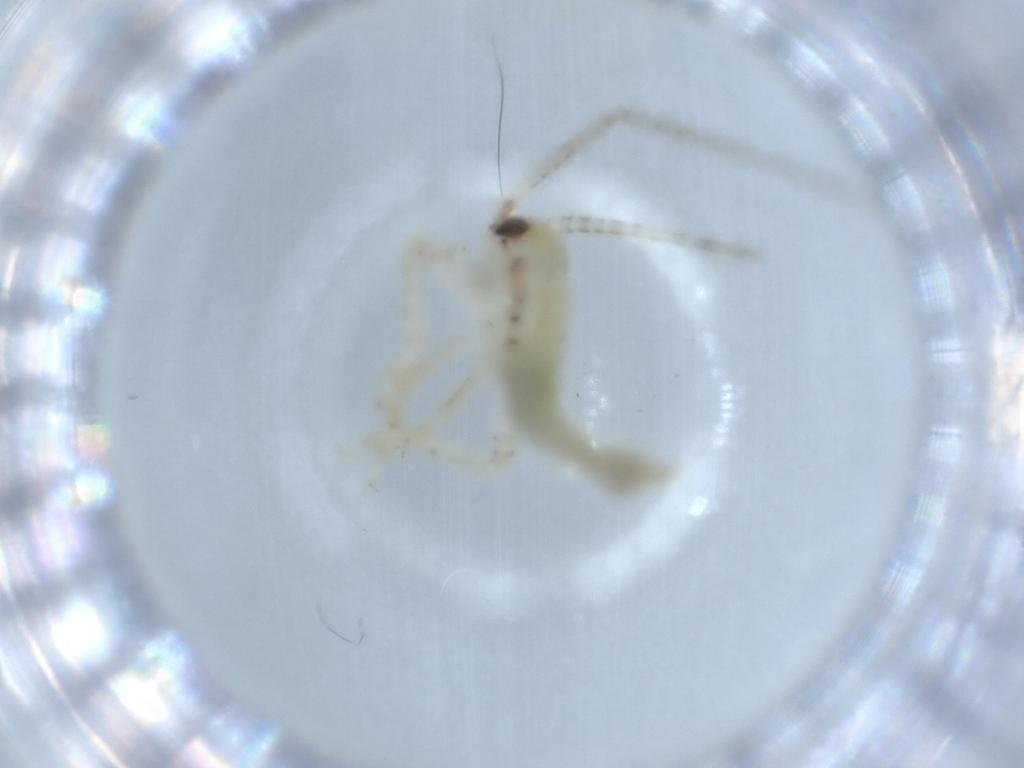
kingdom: Animalia
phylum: Arthropoda
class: Insecta
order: Orthoptera
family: Gryllidae
